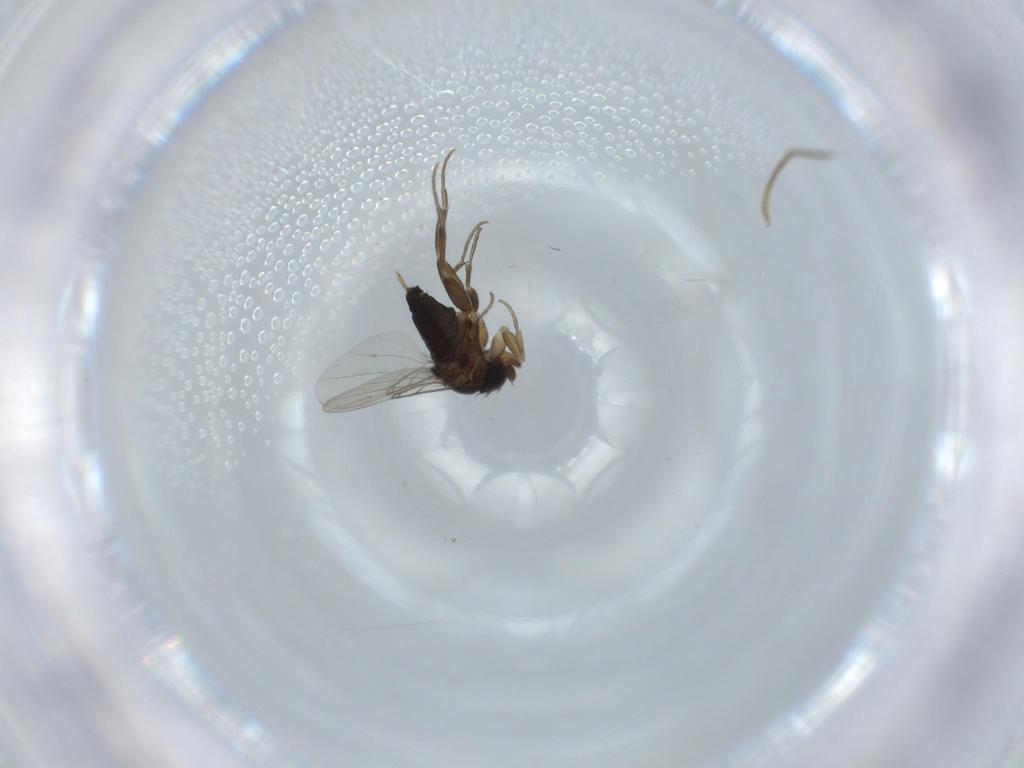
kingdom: Animalia
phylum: Arthropoda
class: Insecta
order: Diptera
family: Phoridae
